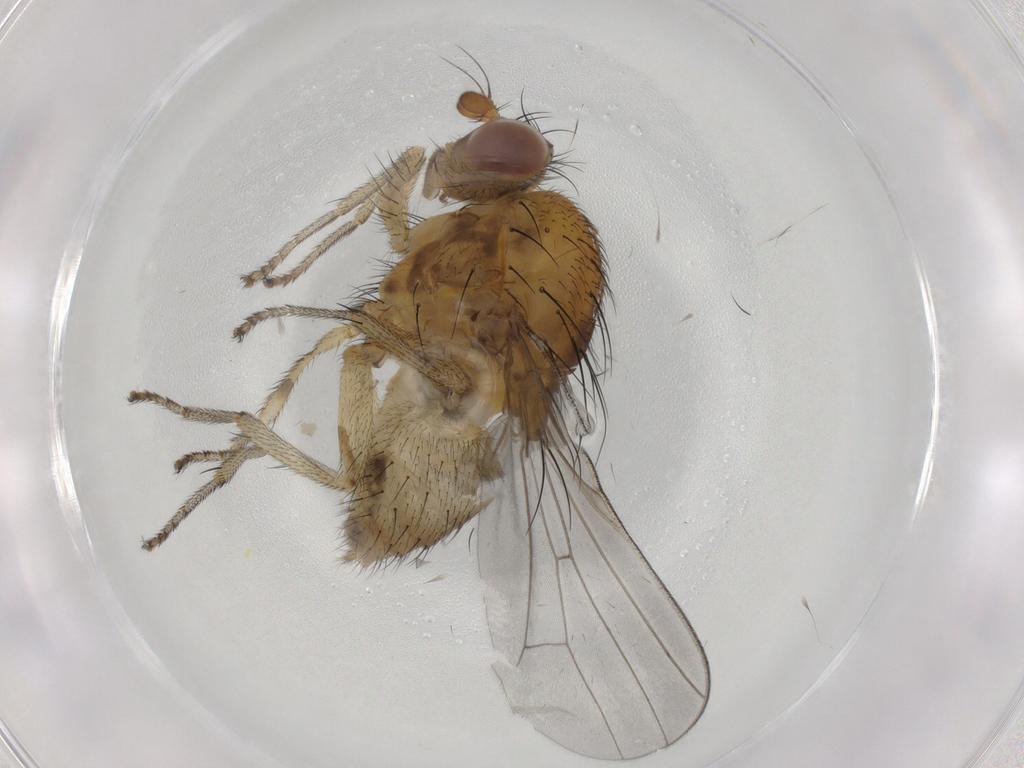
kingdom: Animalia
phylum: Arthropoda
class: Insecta
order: Diptera
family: Lauxaniidae
